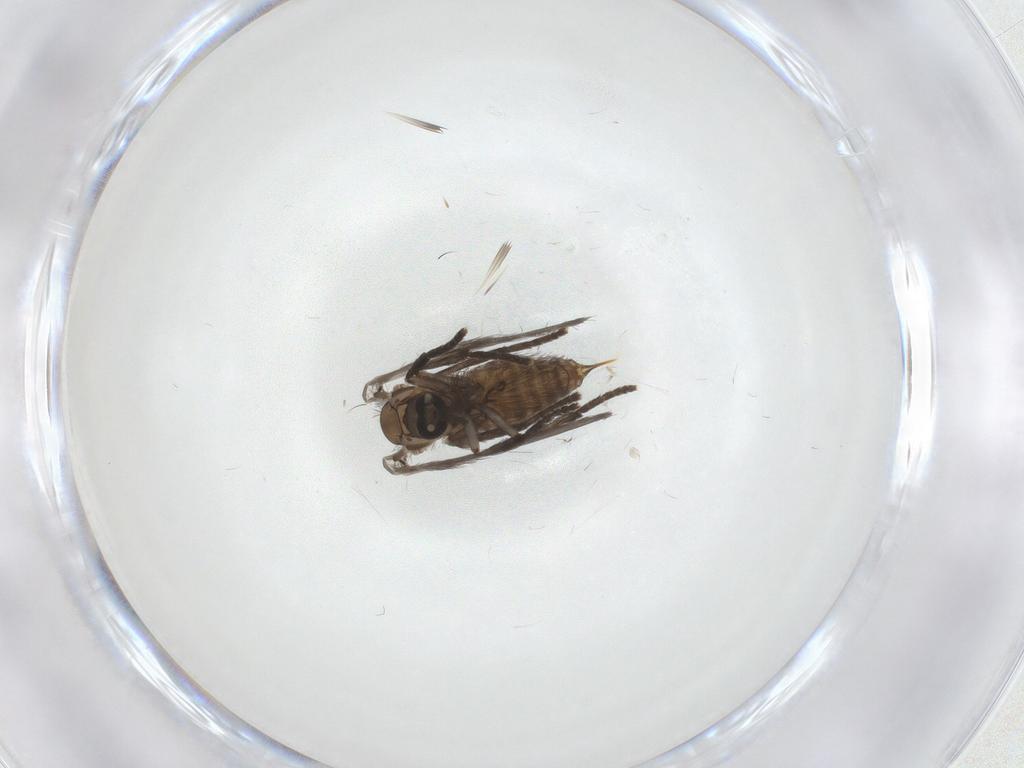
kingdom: Animalia
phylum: Arthropoda
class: Insecta
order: Diptera
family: Psychodidae
